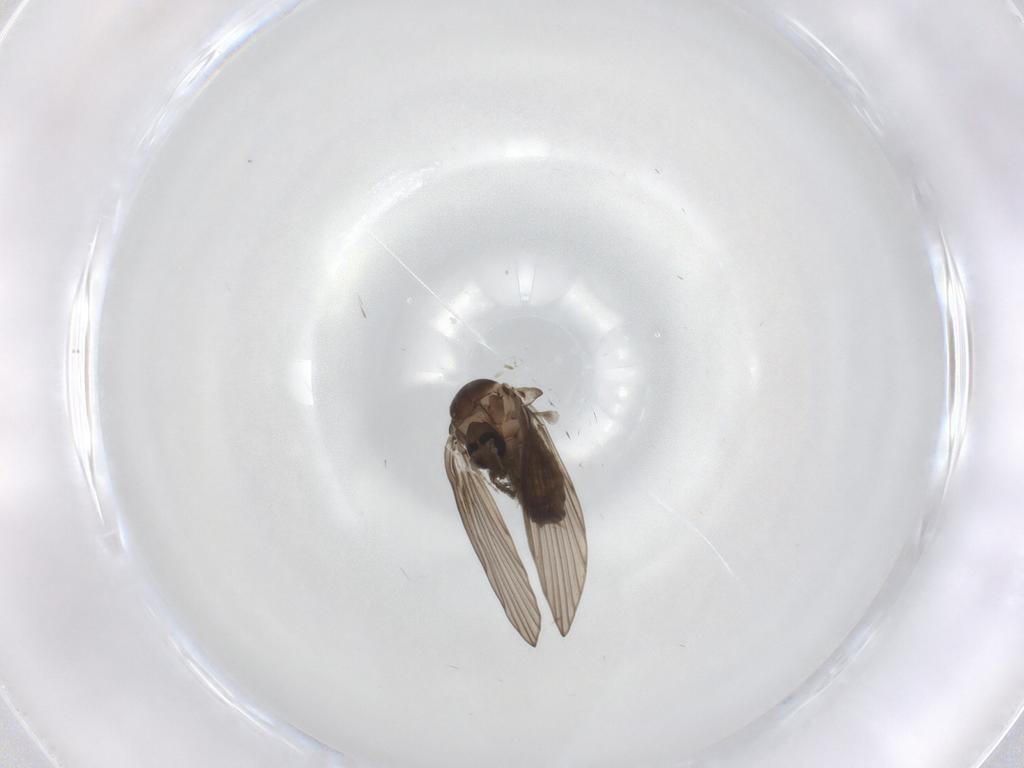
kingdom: Animalia
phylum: Arthropoda
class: Insecta
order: Diptera
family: Psychodidae
